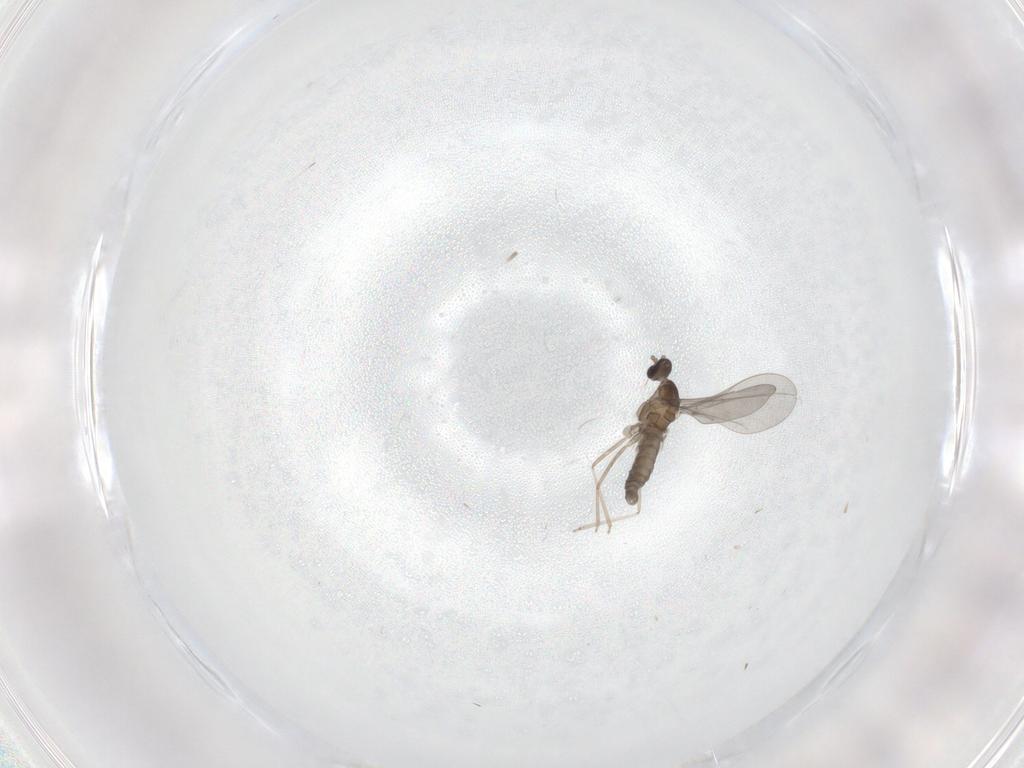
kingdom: Animalia
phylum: Arthropoda
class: Insecta
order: Diptera
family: Cecidomyiidae
